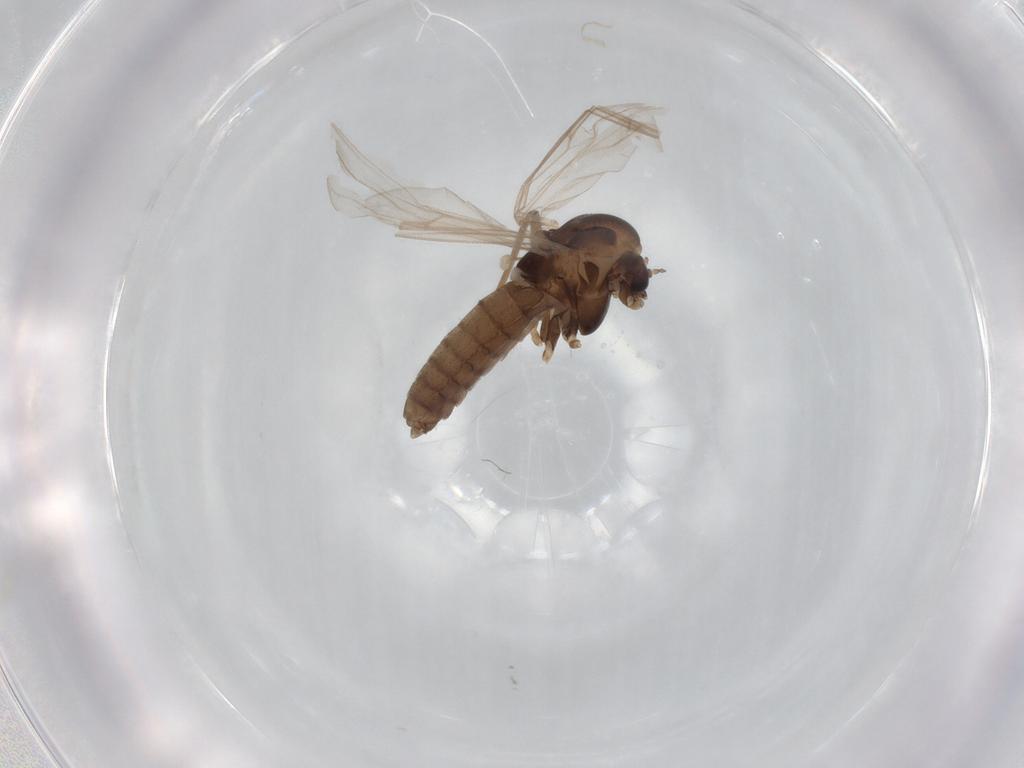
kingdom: Animalia
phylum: Arthropoda
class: Insecta
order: Diptera
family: Chironomidae
